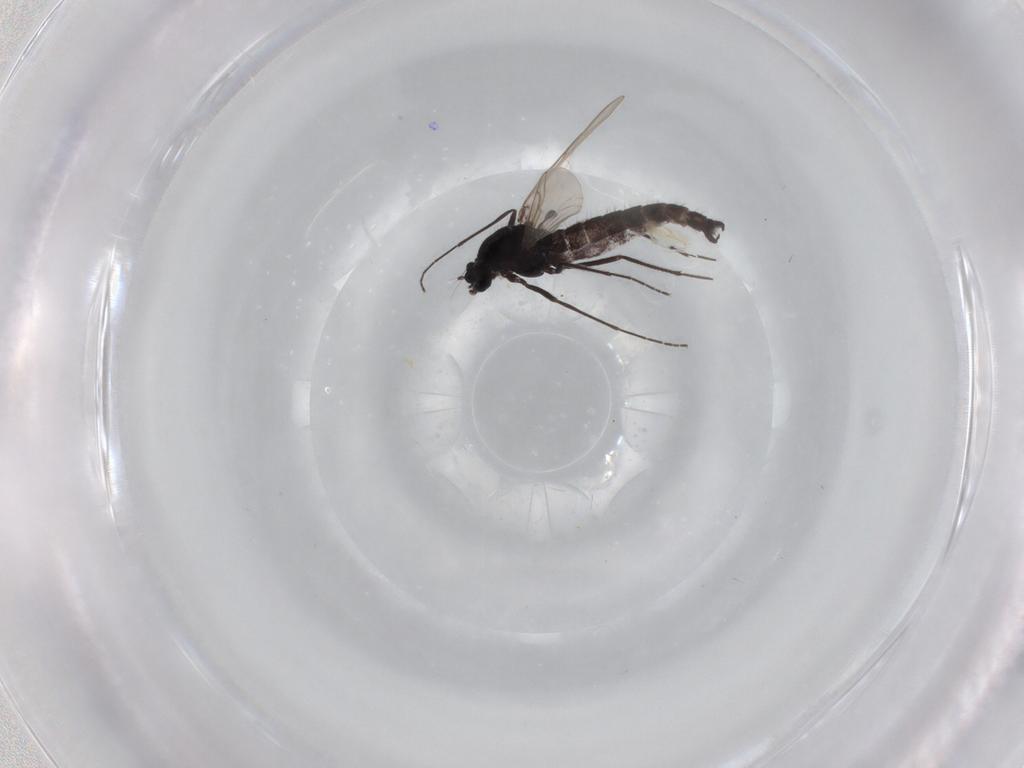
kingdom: Animalia
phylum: Arthropoda
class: Insecta
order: Diptera
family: Chironomidae
